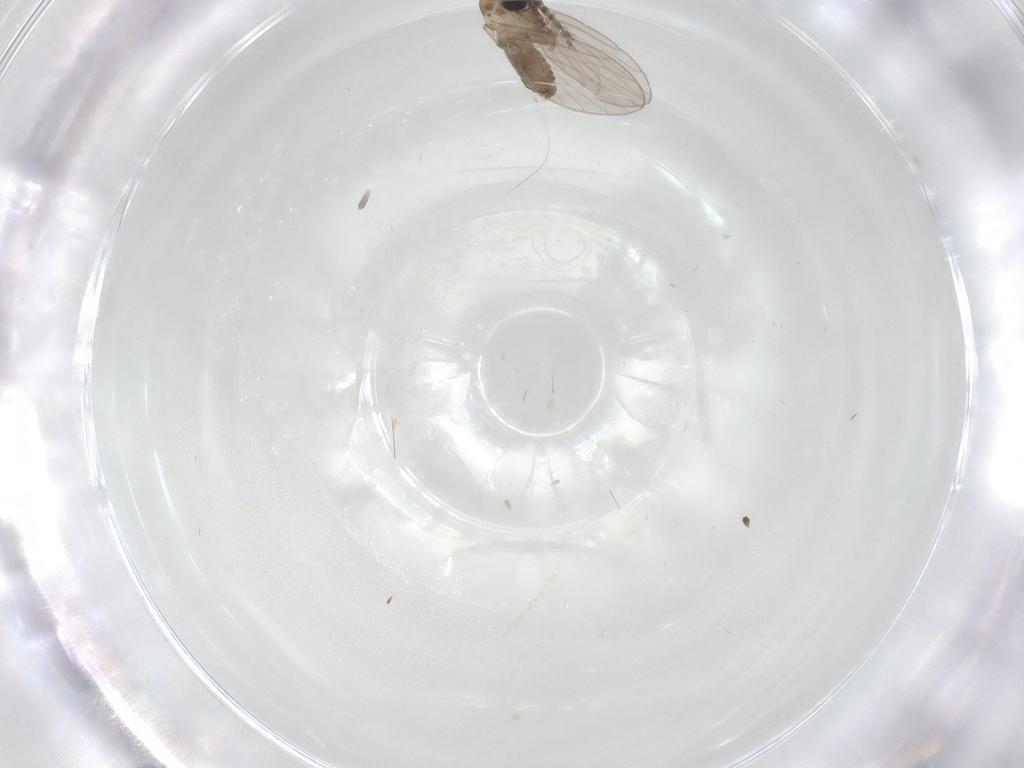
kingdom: Animalia
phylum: Arthropoda
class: Insecta
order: Diptera
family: Psychodidae
